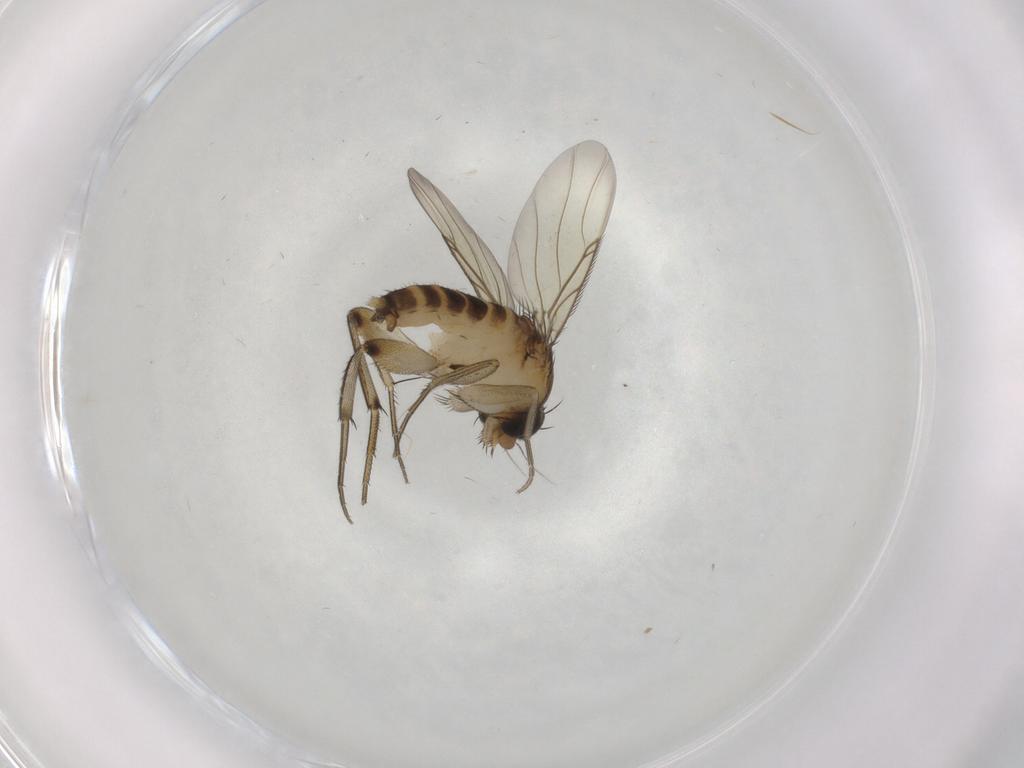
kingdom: Animalia
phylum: Arthropoda
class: Insecta
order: Diptera
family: Phoridae
